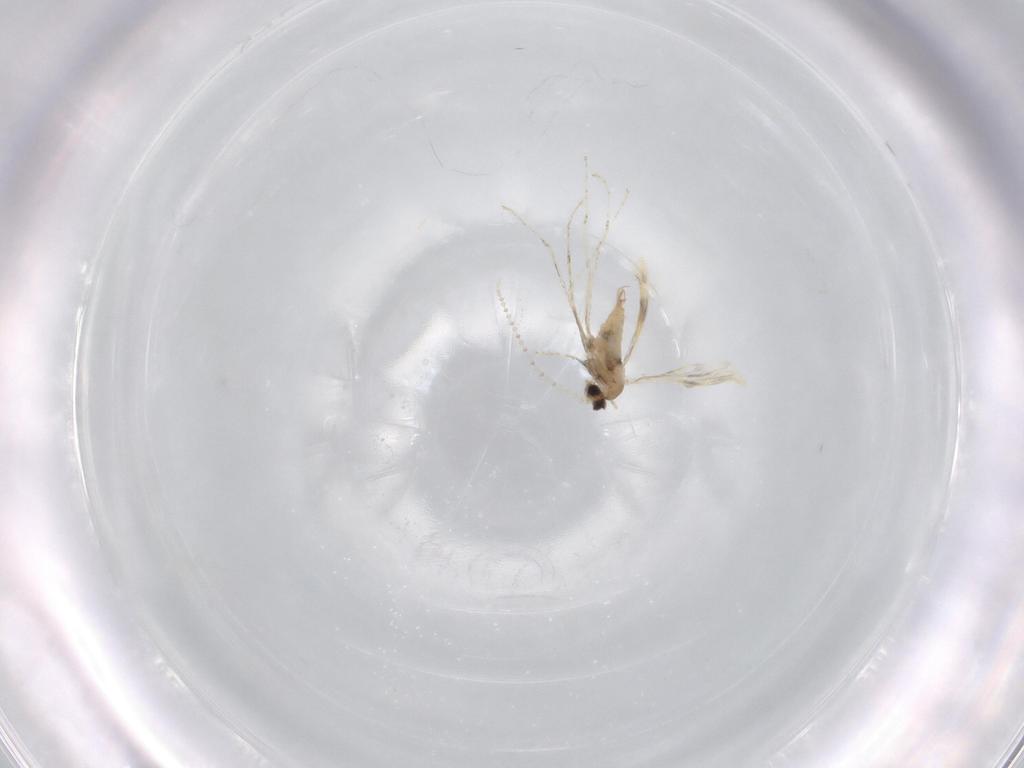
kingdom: Animalia
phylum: Arthropoda
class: Insecta
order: Diptera
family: Cecidomyiidae
